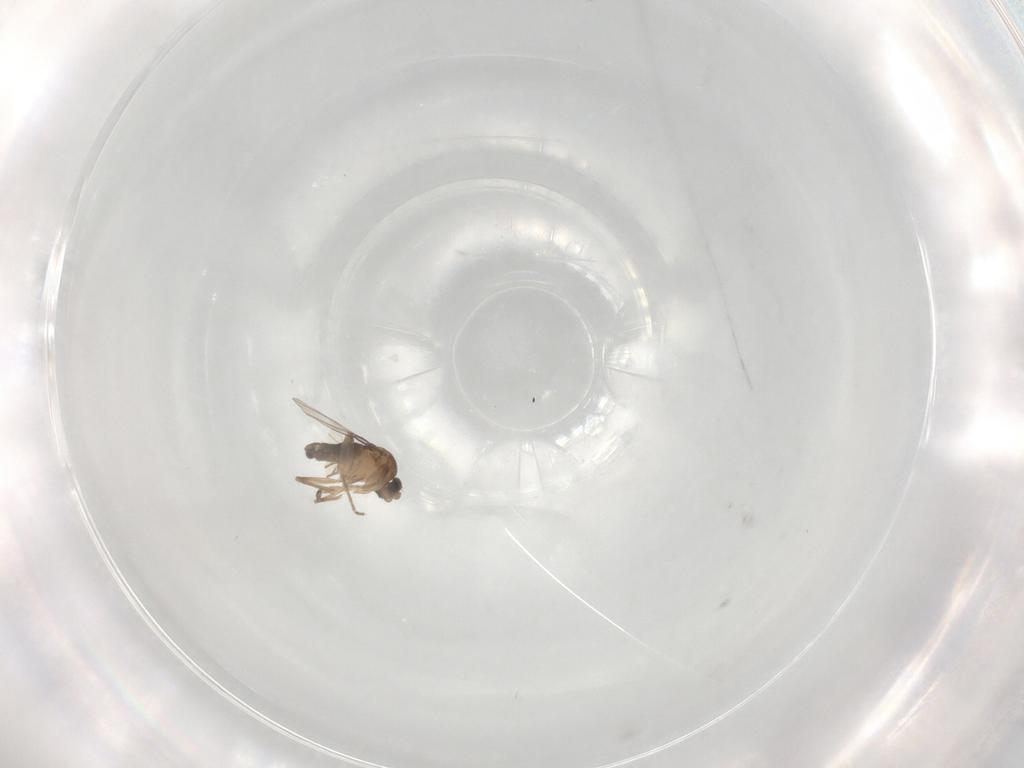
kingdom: Animalia
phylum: Arthropoda
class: Insecta
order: Diptera
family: Phoridae
